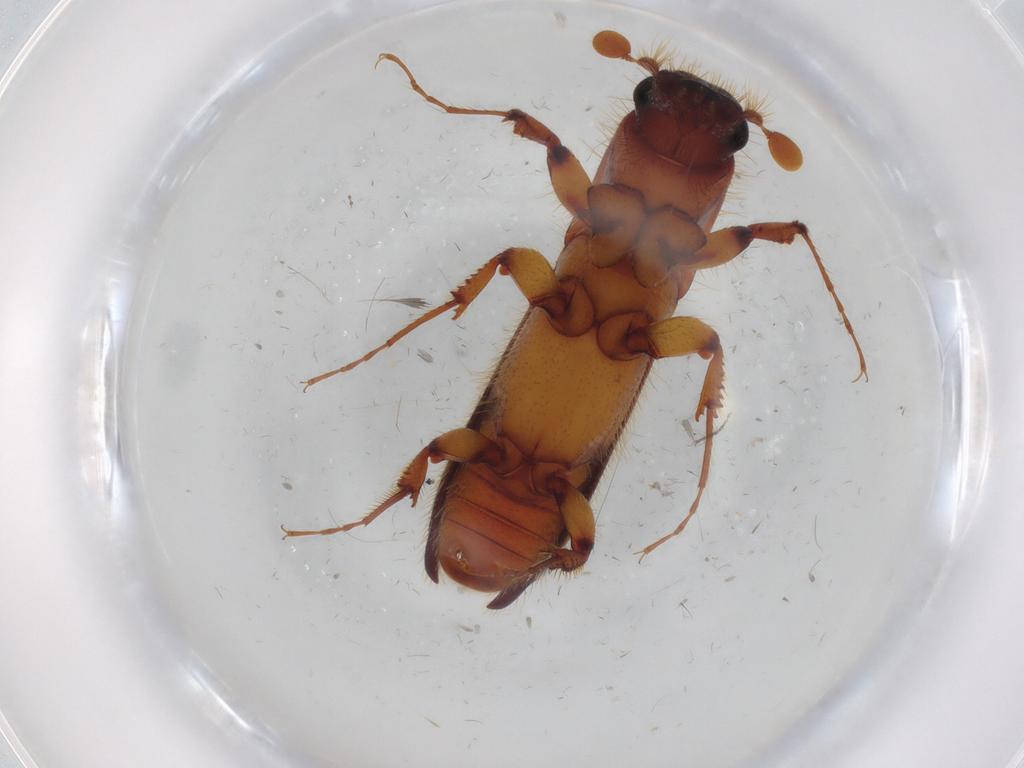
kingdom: Animalia
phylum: Arthropoda
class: Insecta
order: Coleoptera
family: Curculionidae
